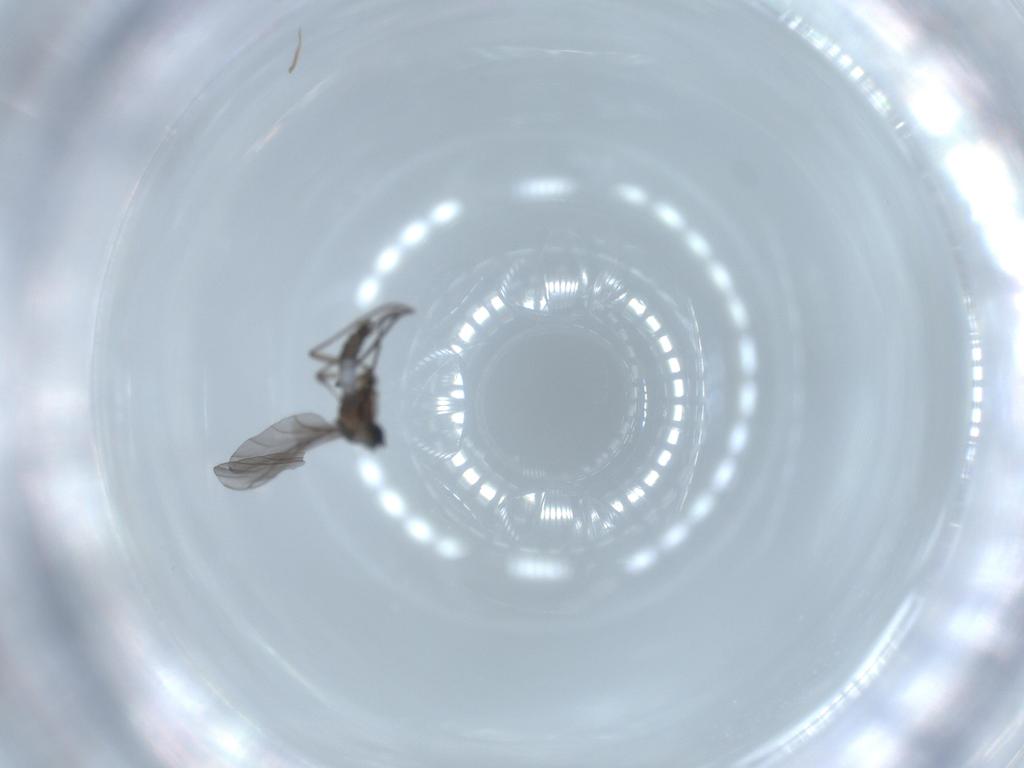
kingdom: Animalia
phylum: Arthropoda
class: Insecta
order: Diptera
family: Sciaridae
